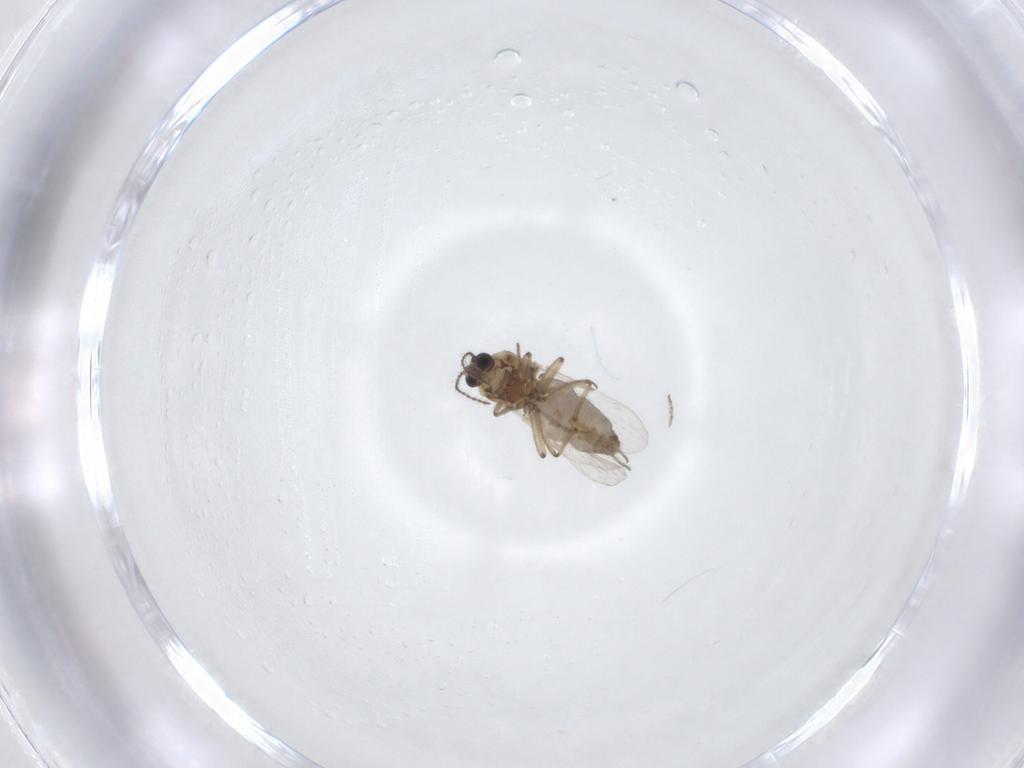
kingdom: Animalia
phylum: Arthropoda
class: Insecta
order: Diptera
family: Ceratopogonidae
